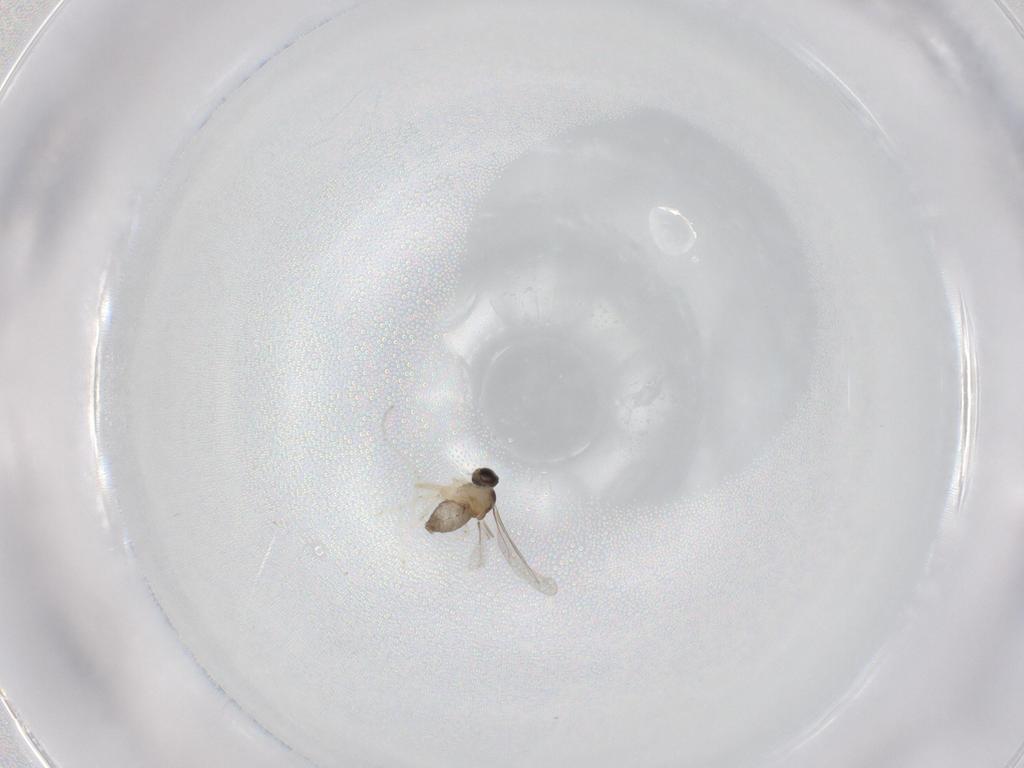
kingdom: Animalia
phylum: Arthropoda
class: Insecta
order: Diptera
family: Cecidomyiidae
